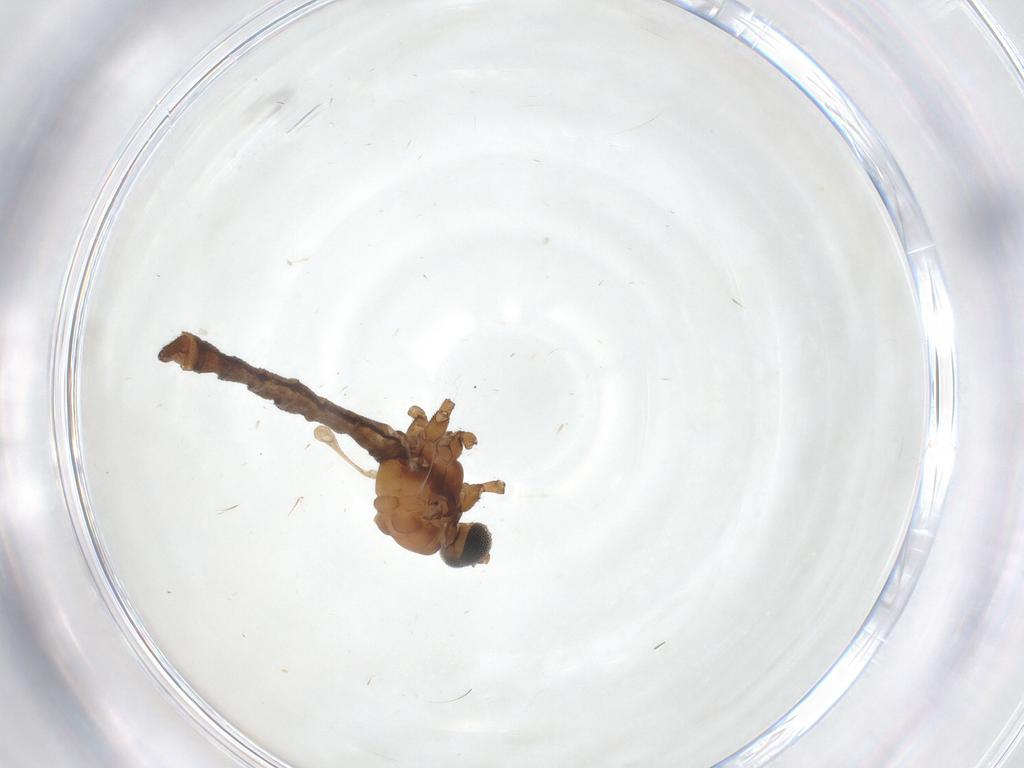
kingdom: Animalia
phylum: Arthropoda
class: Insecta
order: Diptera
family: Limoniidae
